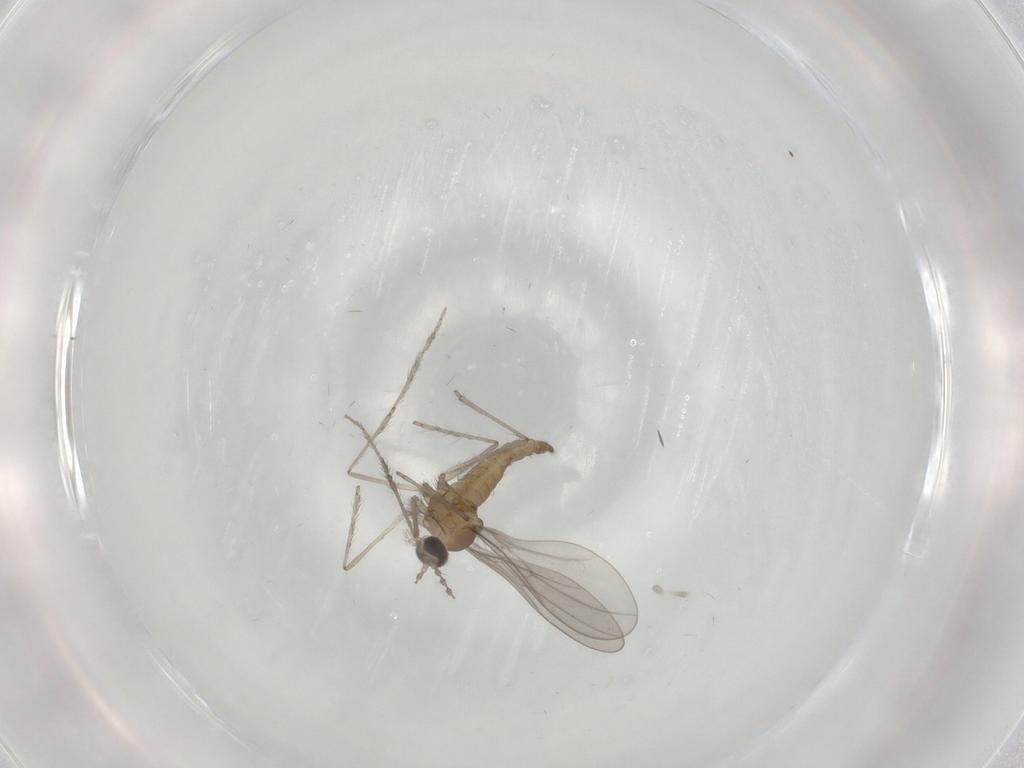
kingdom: Animalia
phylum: Arthropoda
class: Insecta
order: Diptera
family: Cecidomyiidae
